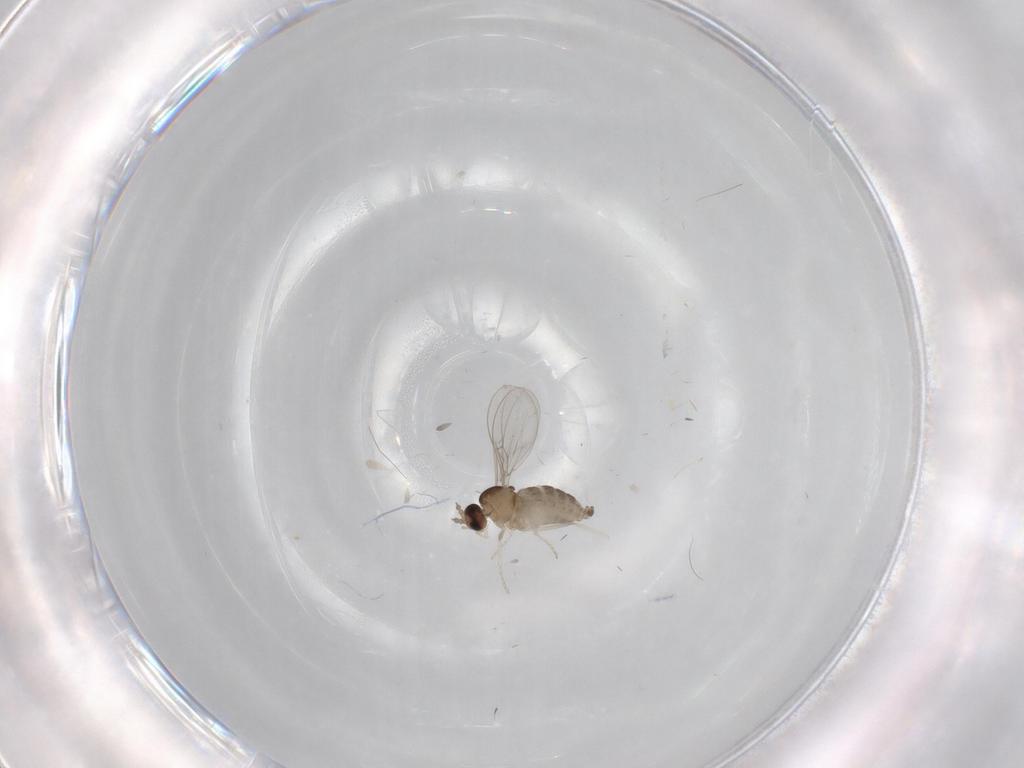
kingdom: Animalia
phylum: Arthropoda
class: Insecta
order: Diptera
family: Cecidomyiidae
